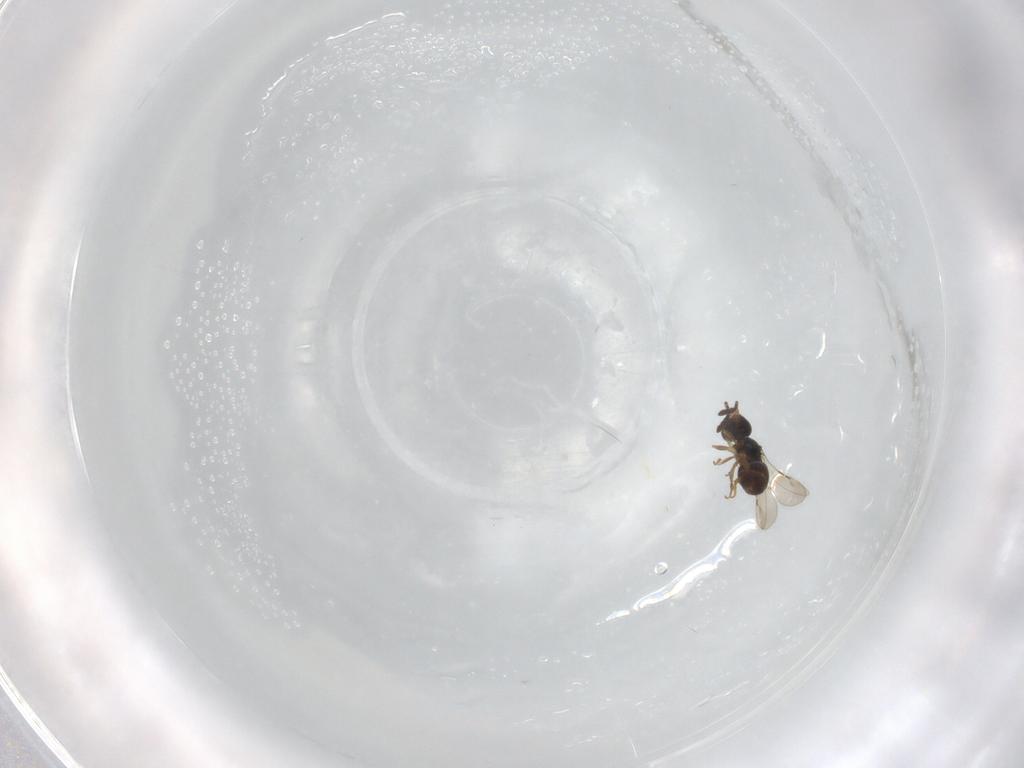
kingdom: Animalia
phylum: Arthropoda
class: Insecta
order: Hymenoptera
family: Ceraphronidae
